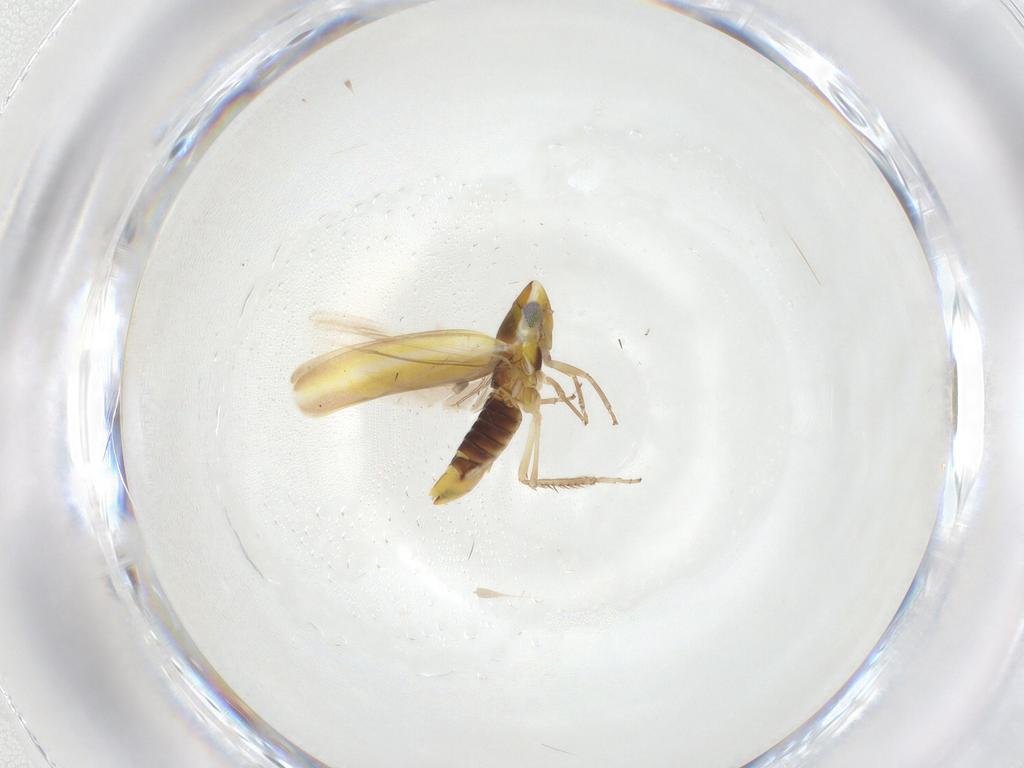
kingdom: Animalia
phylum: Arthropoda
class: Insecta
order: Hemiptera
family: Cicadellidae
